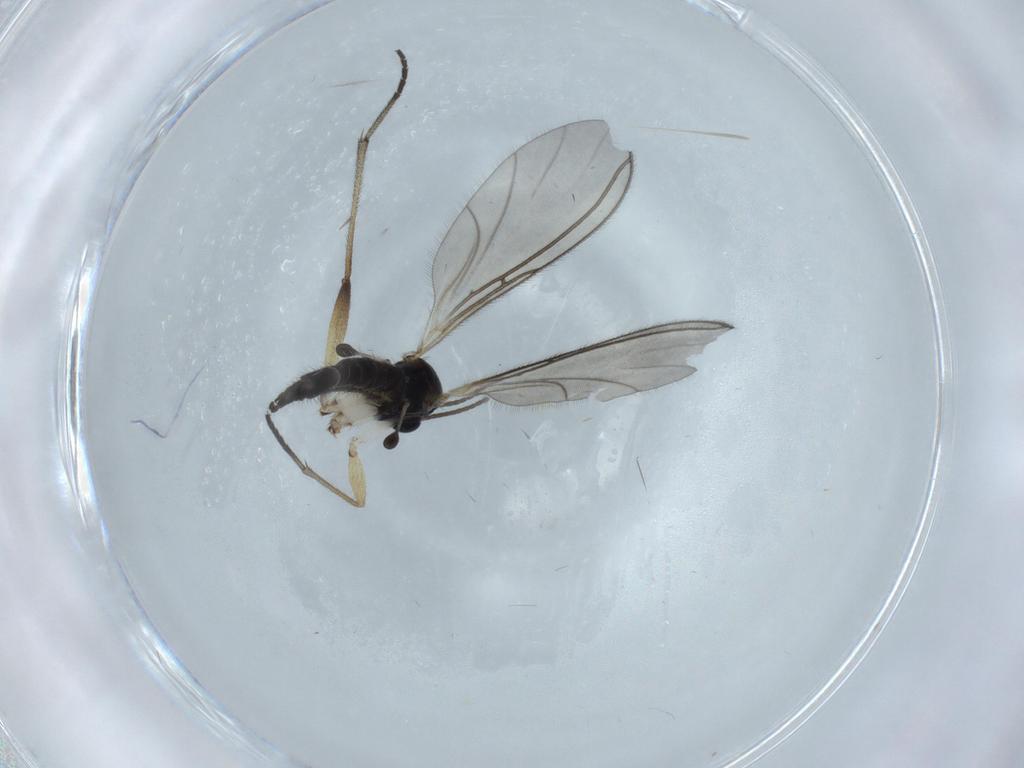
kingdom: Animalia
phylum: Arthropoda
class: Insecta
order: Diptera
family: Sciaridae
